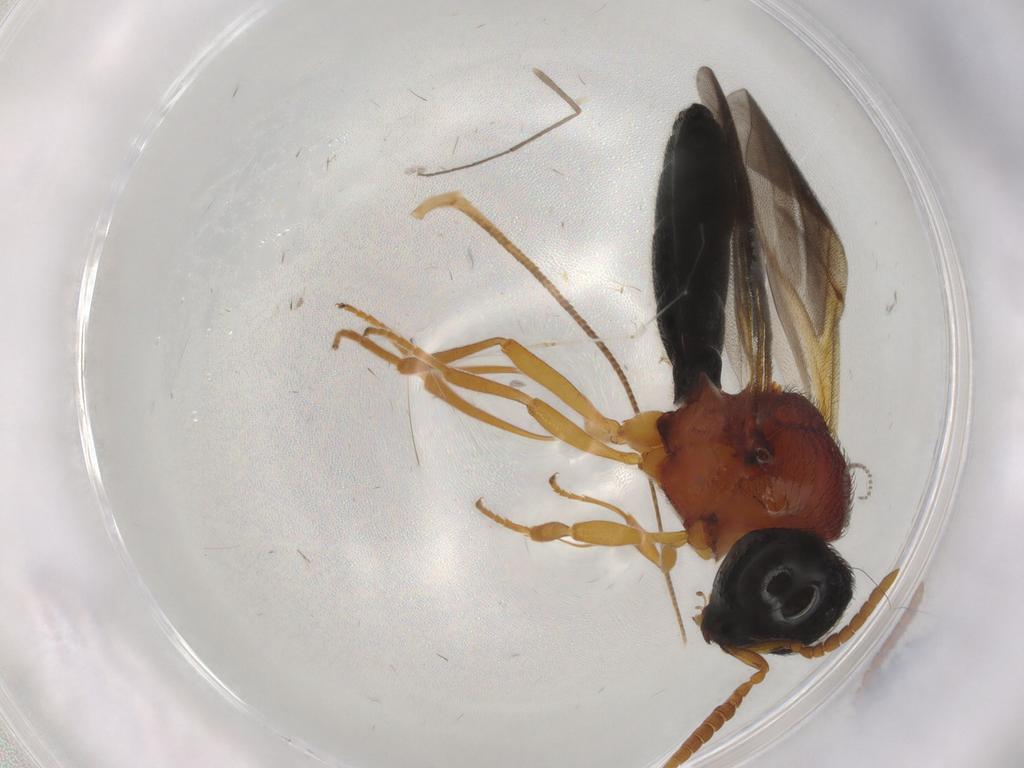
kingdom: Animalia
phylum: Arthropoda
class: Insecta
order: Hymenoptera
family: Scelionidae
